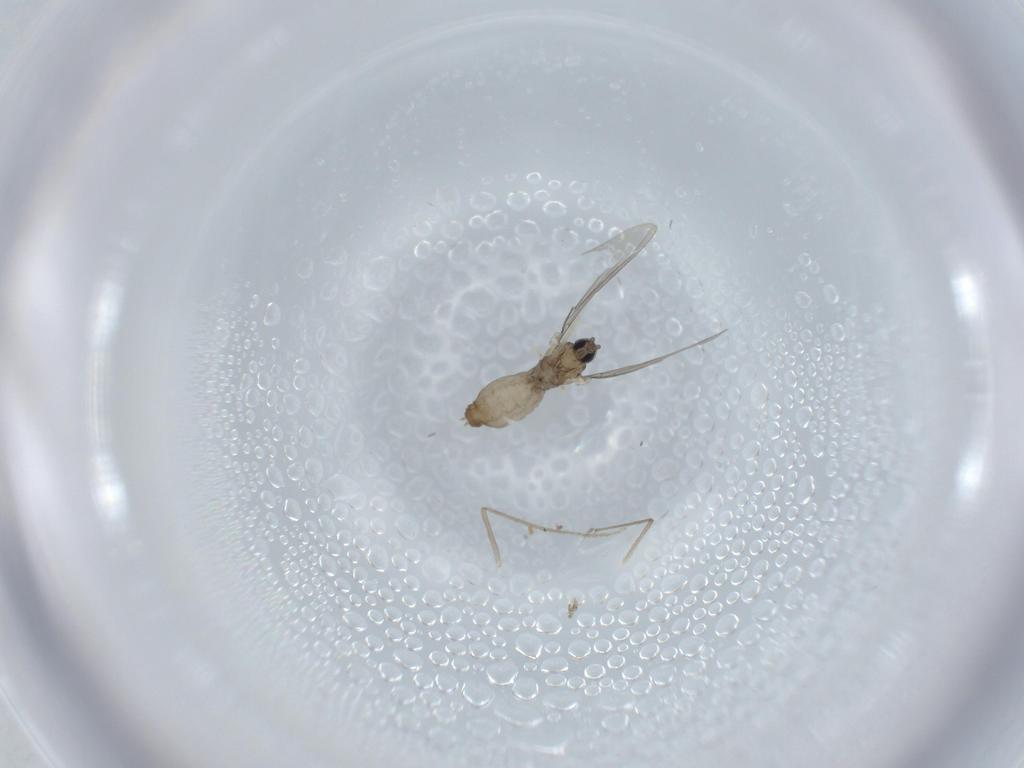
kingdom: Animalia
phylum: Arthropoda
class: Insecta
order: Diptera
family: Chironomidae
